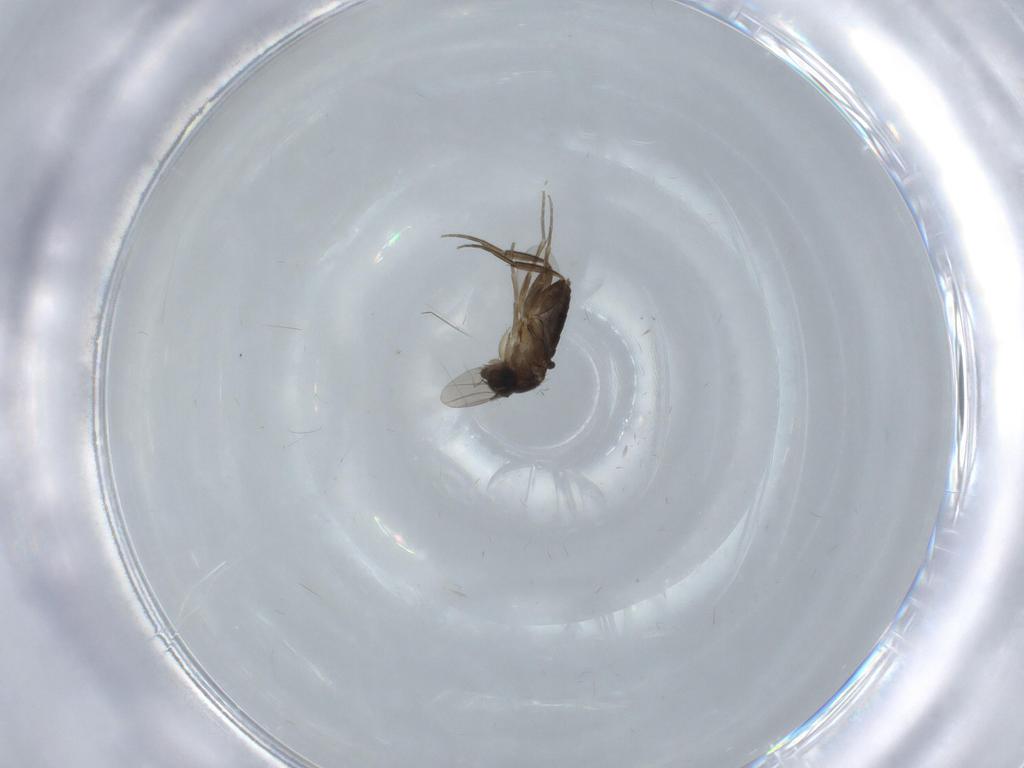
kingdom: Animalia
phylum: Arthropoda
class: Insecta
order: Diptera
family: Phoridae
